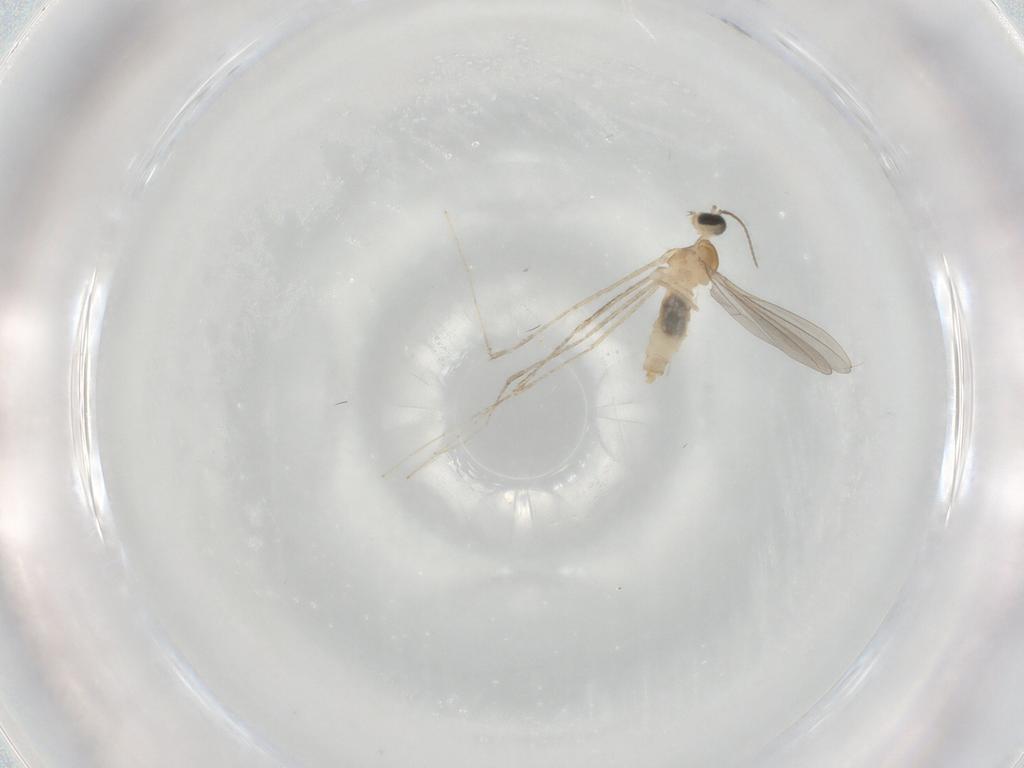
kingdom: Animalia
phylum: Arthropoda
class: Insecta
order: Diptera
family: Cecidomyiidae
